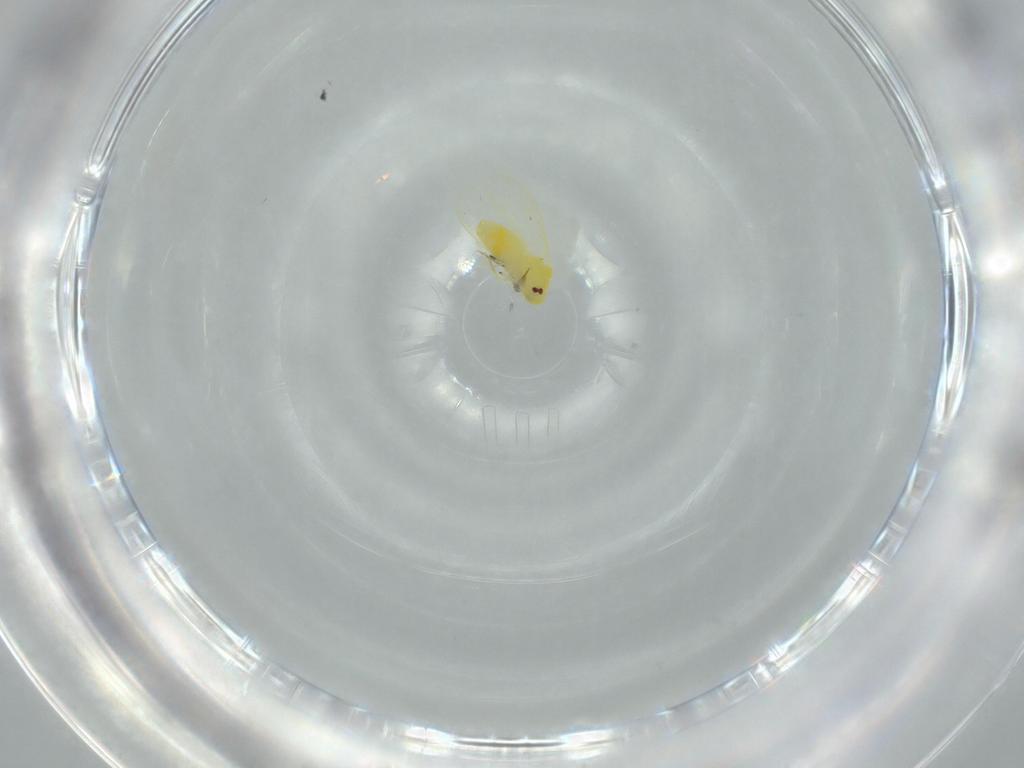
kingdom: Animalia
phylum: Arthropoda
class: Insecta
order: Hemiptera
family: Aleyrodidae
